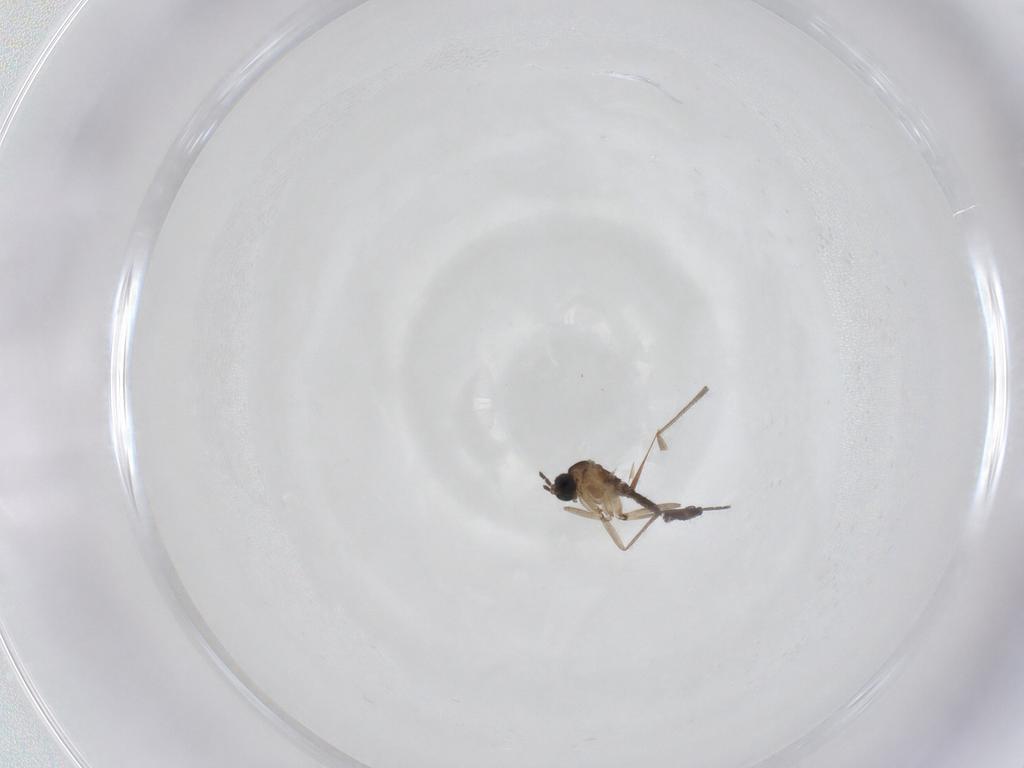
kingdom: Animalia
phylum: Arthropoda
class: Insecta
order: Diptera
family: Sciaridae
